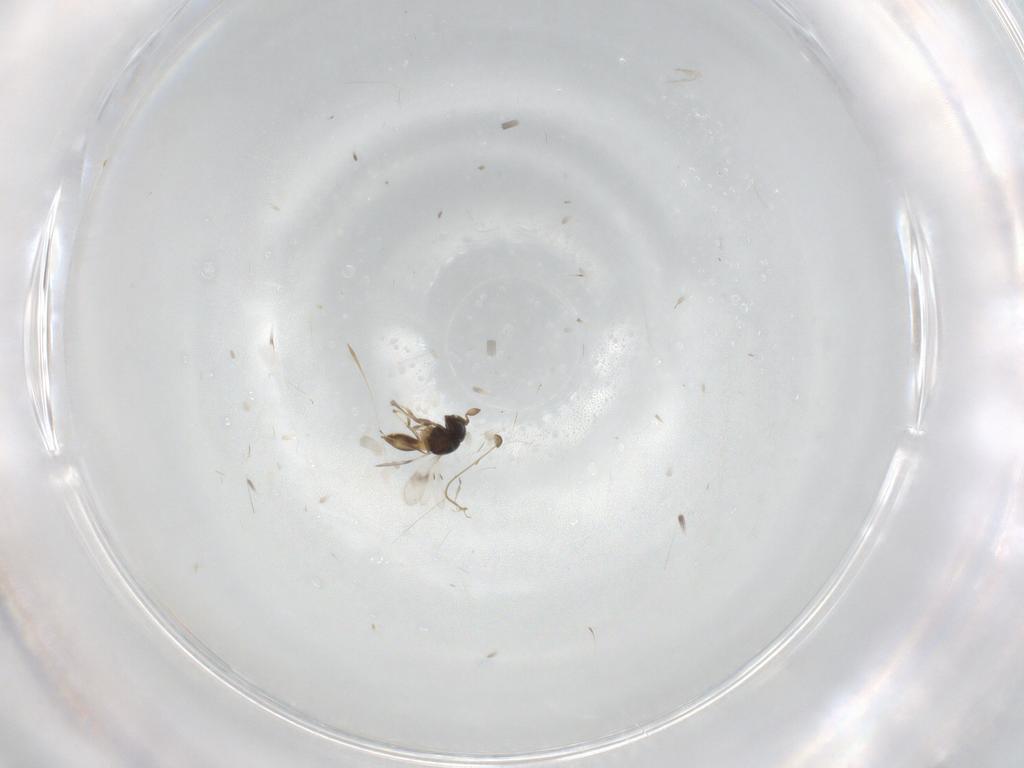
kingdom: Animalia
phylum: Arthropoda
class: Insecta
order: Hymenoptera
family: Scelionidae
